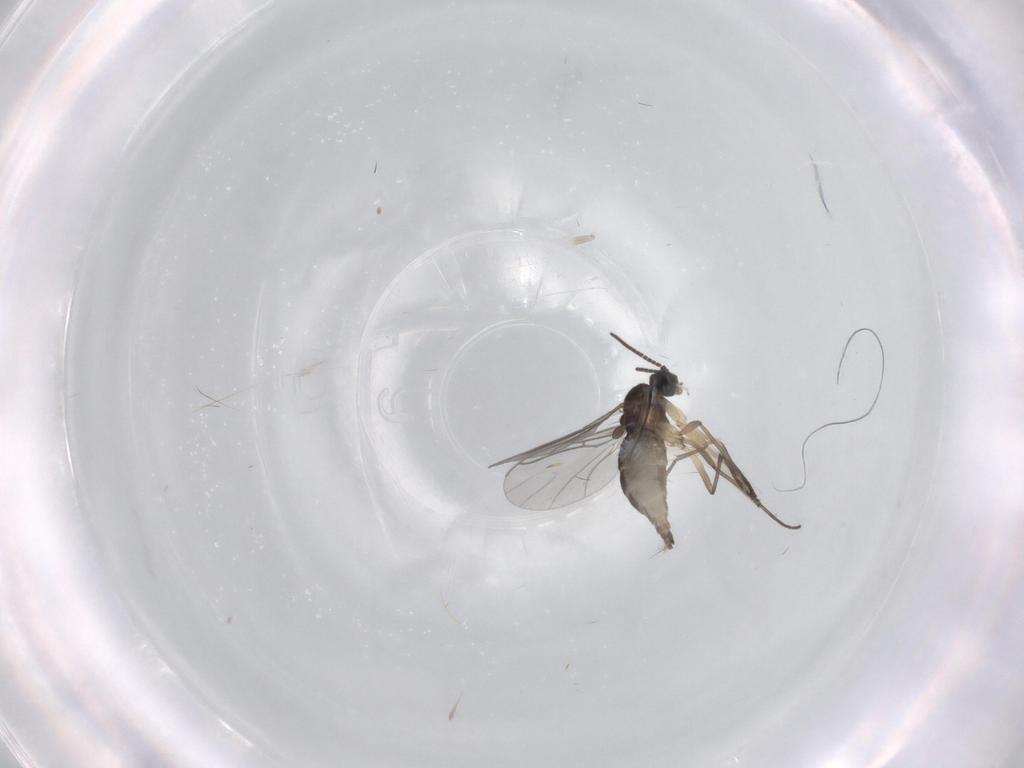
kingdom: Animalia
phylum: Arthropoda
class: Insecta
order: Diptera
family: Sciaridae
